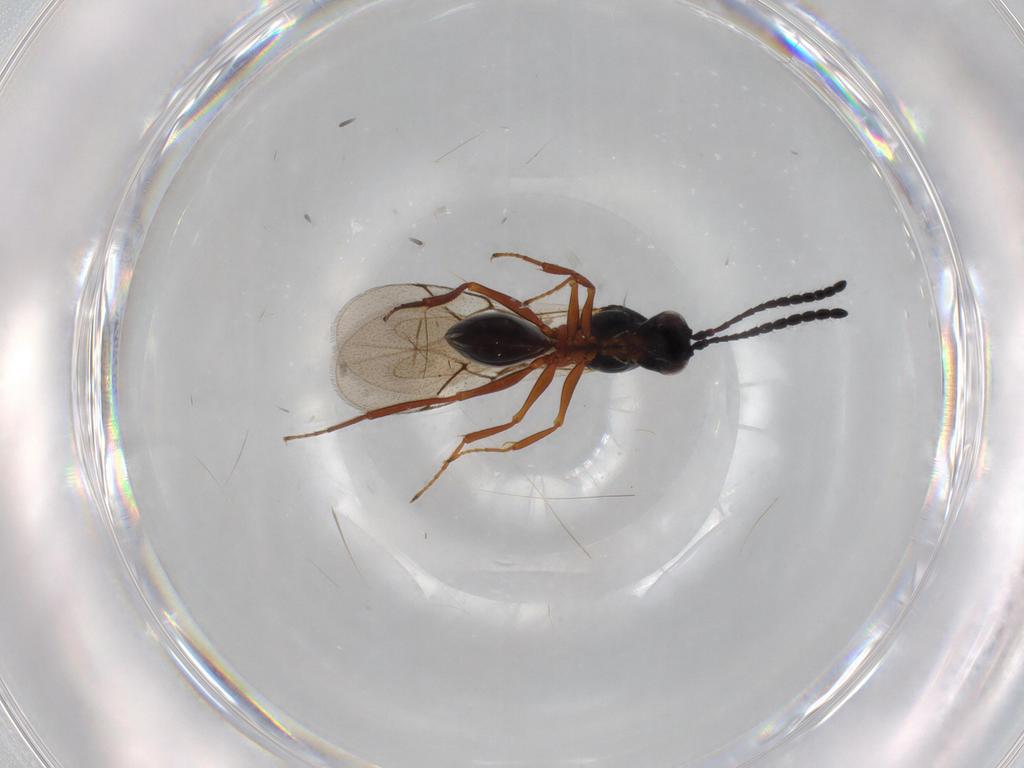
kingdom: Animalia
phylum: Arthropoda
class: Insecta
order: Hymenoptera
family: Figitidae
